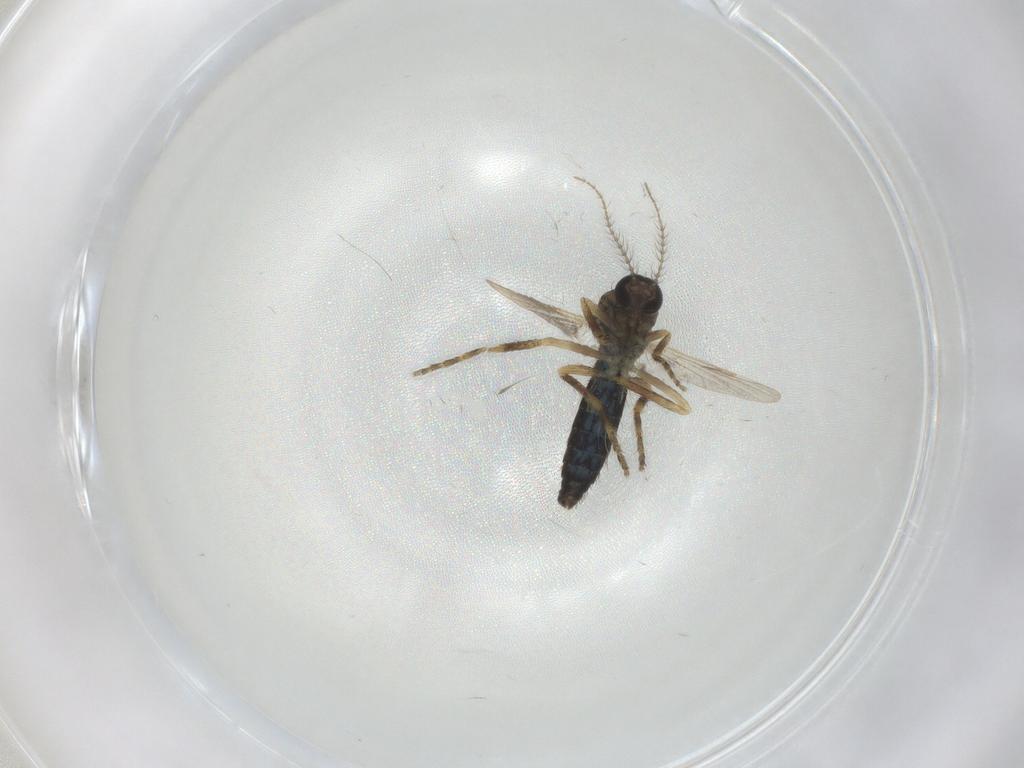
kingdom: Animalia
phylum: Arthropoda
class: Insecta
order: Diptera
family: Ceratopogonidae
